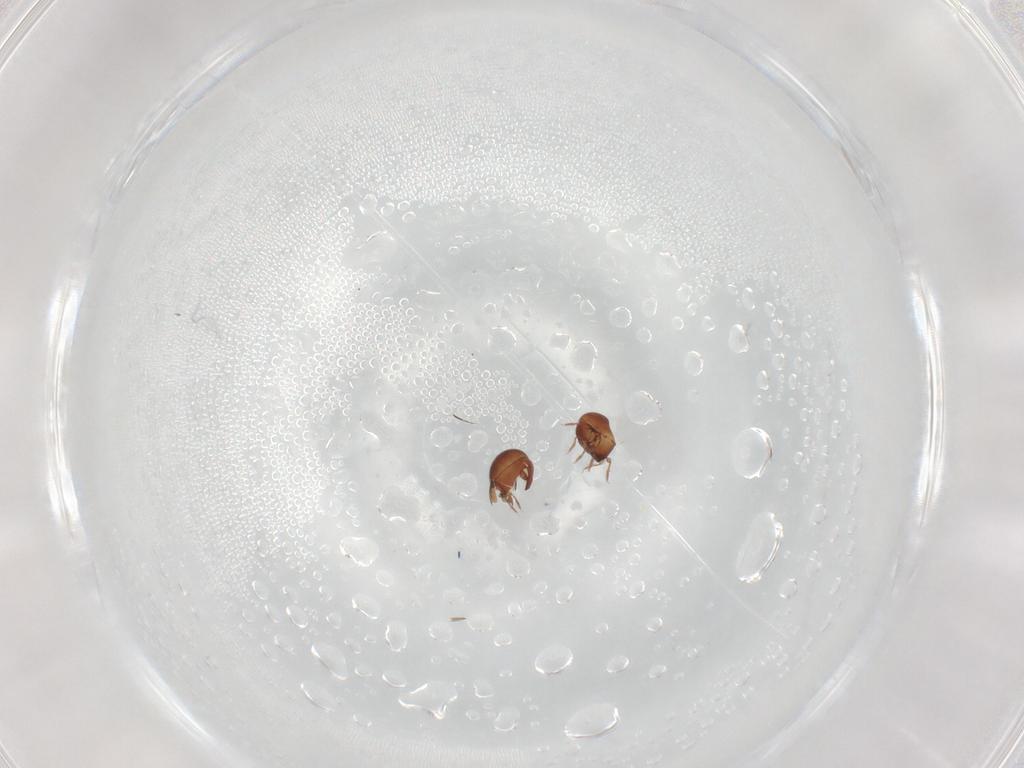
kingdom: Animalia
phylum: Arthropoda
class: Arachnida
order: Sarcoptiformes
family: Galumnidae
